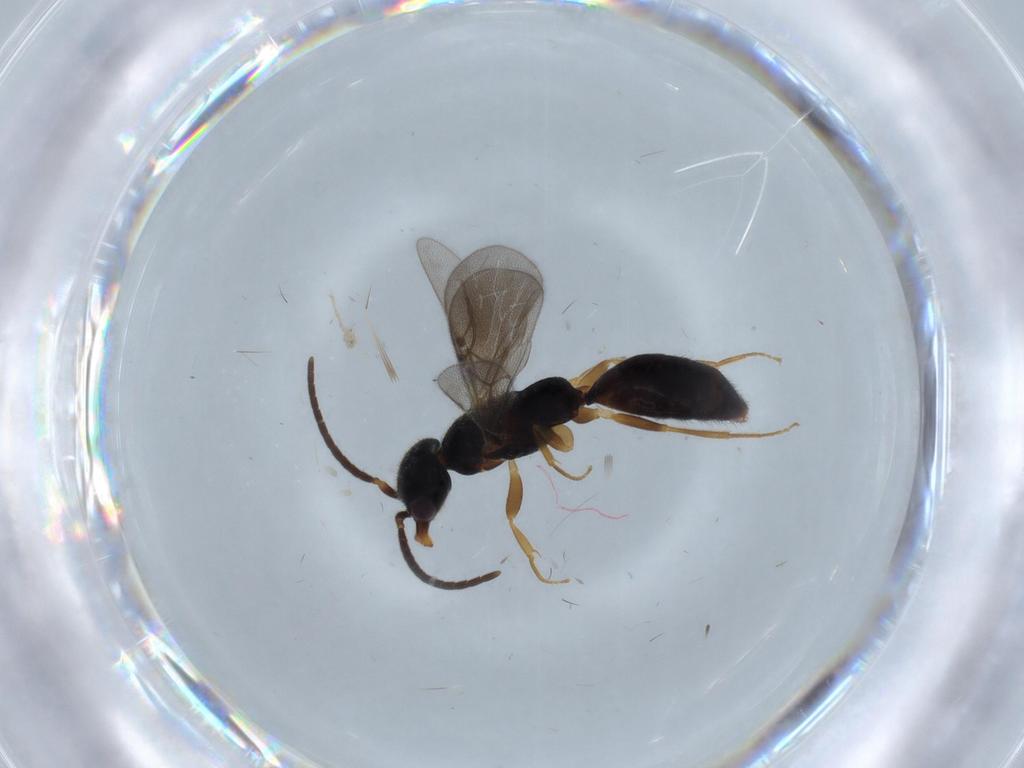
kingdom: Animalia
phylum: Arthropoda
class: Insecta
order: Hymenoptera
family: Bethylidae
